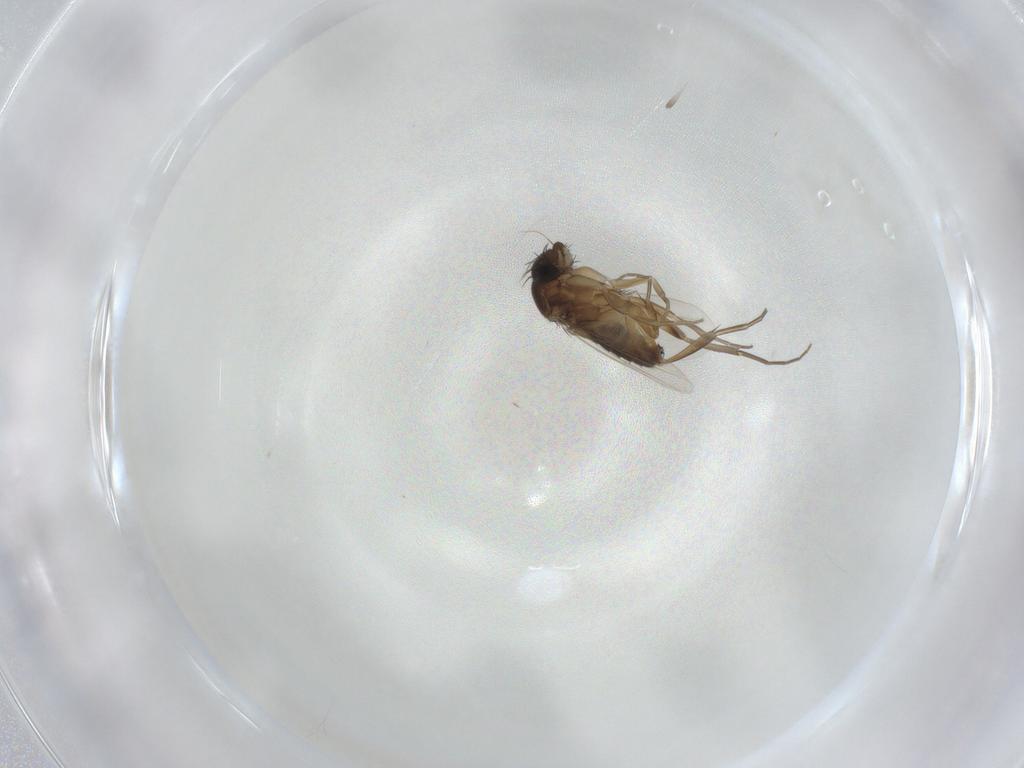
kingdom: Animalia
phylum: Arthropoda
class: Insecta
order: Diptera
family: Phoridae
